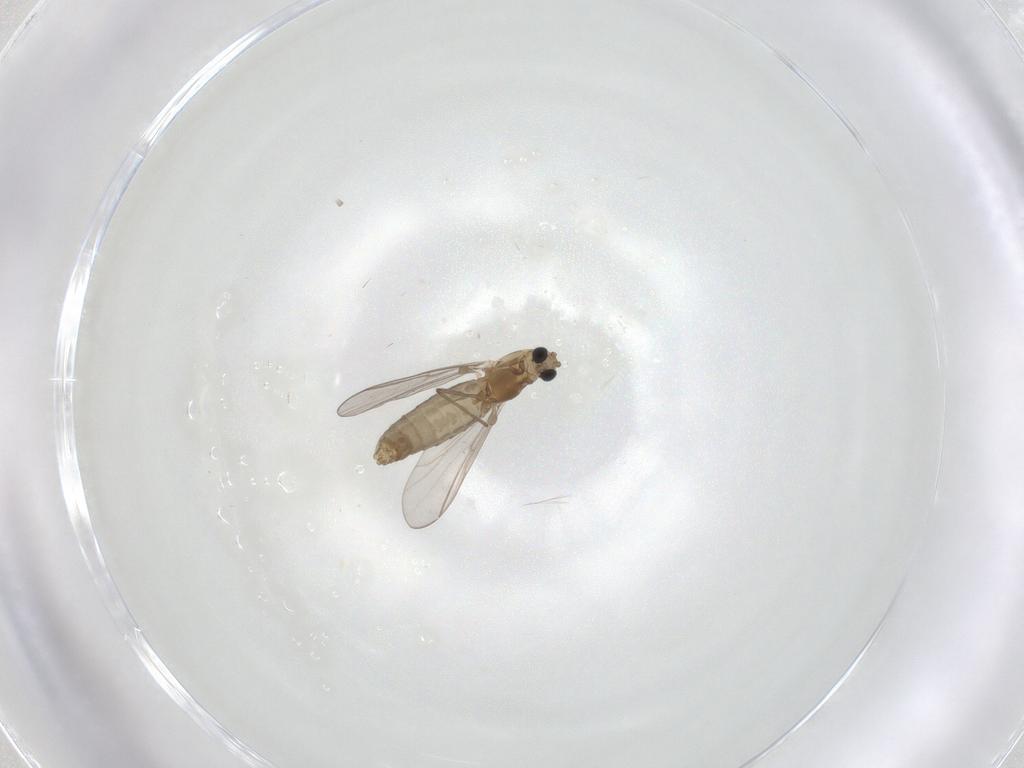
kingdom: Animalia
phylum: Arthropoda
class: Insecta
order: Diptera
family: Chironomidae
